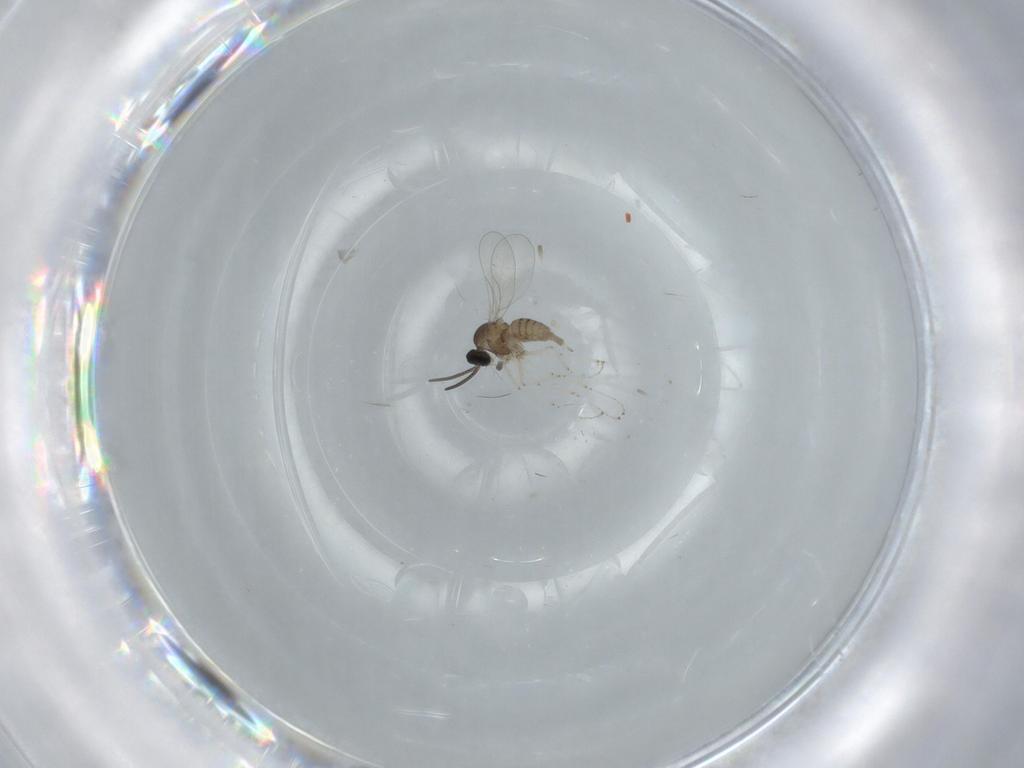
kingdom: Animalia
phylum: Arthropoda
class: Insecta
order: Diptera
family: Cecidomyiidae
